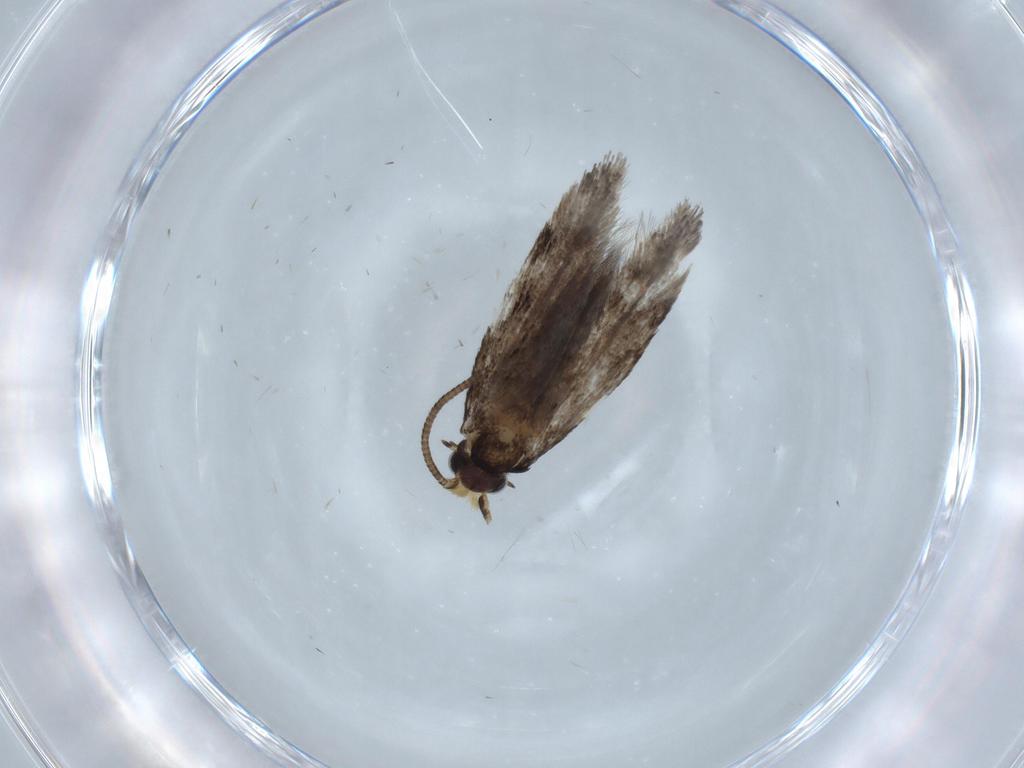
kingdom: Animalia
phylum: Arthropoda
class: Insecta
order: Lepidoptera
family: Tineidae
